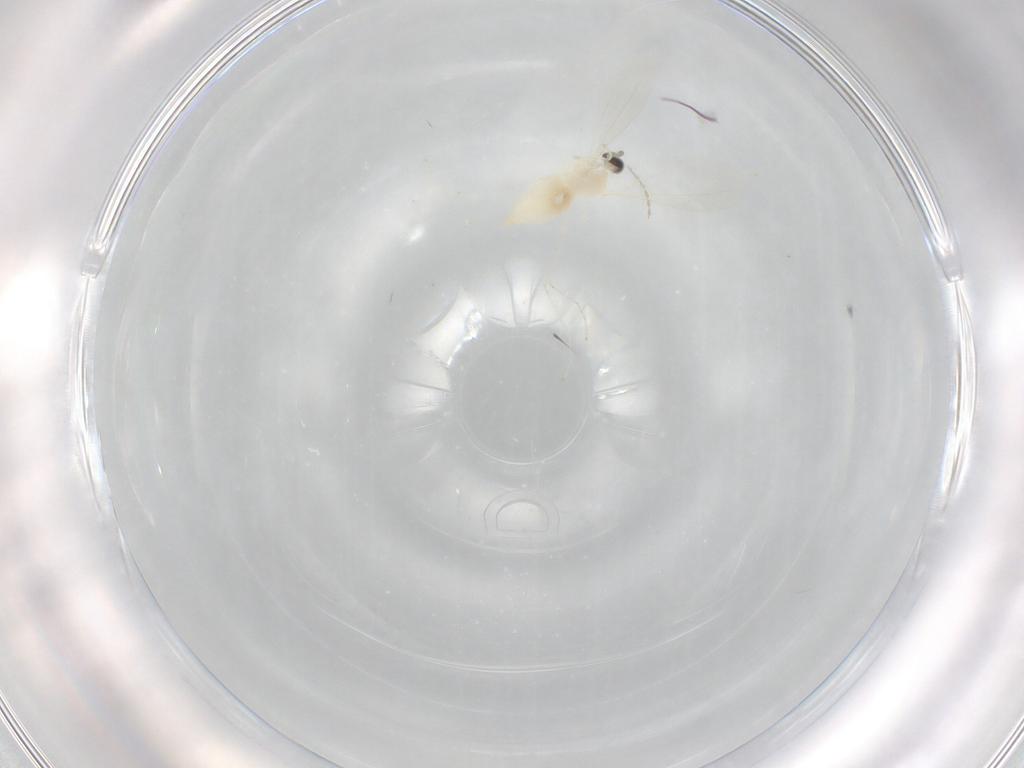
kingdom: Animalia
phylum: Arthropoda
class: Insecta
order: Diptera
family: Cecidomyiidae
